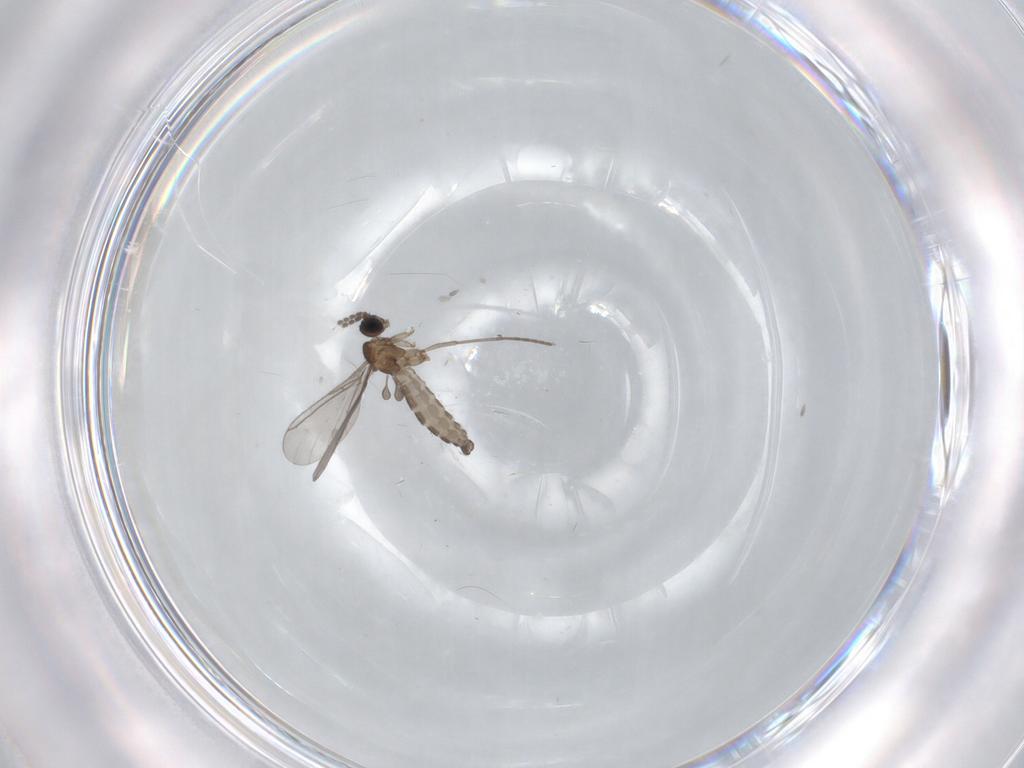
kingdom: Animalia
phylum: Arthropoda
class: Insecta
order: Diptera
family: Sciaridae
